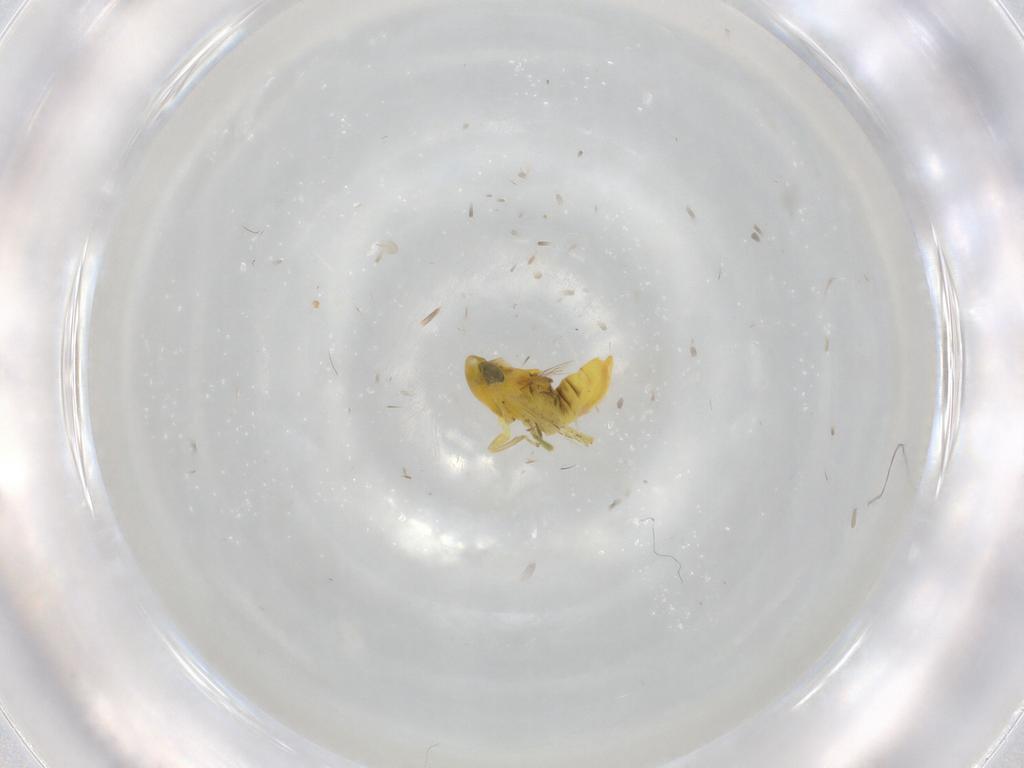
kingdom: Animalia
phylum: Arthropoda
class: Insecta
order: Hemiptera
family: Cicadellidae
